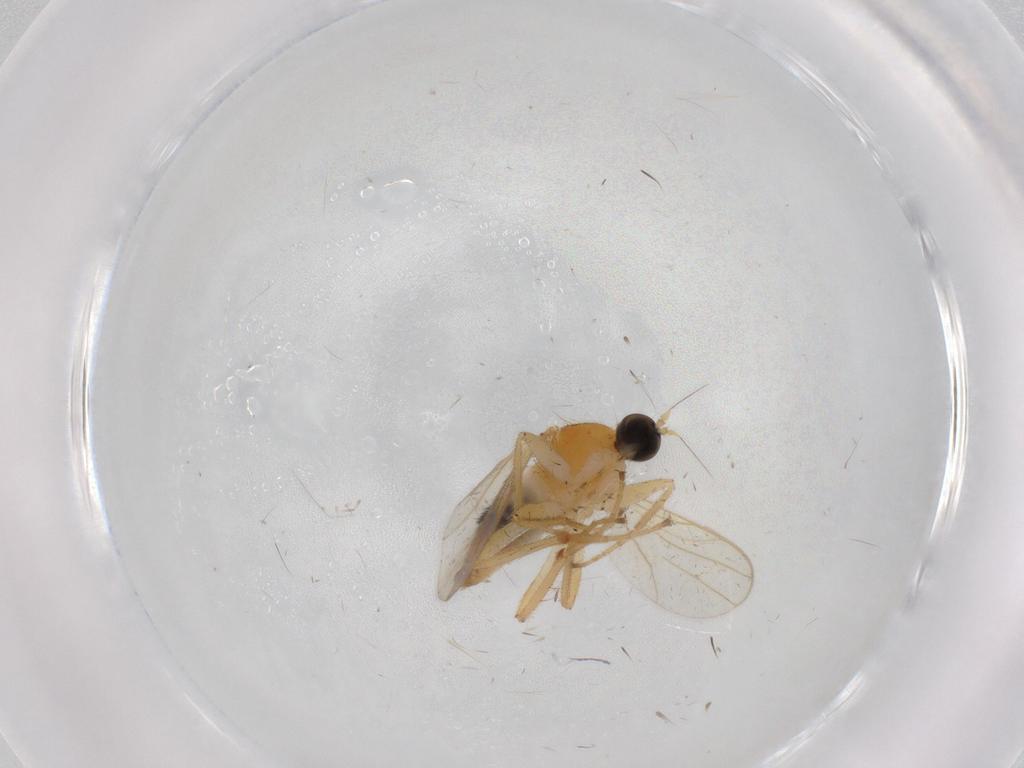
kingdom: Animalia
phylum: Arthropoda
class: Insecta
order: Diptera
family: Hybotidae
